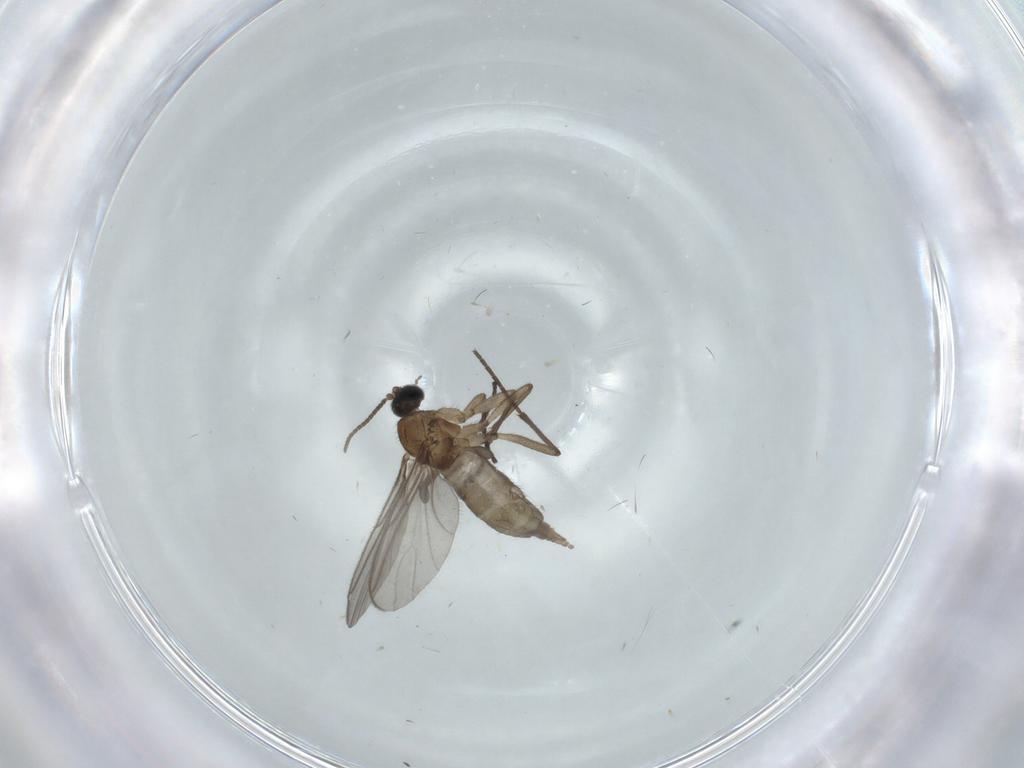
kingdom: Animalia
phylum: Arthropoda
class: Insecta
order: Diptera
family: Sciaridae
